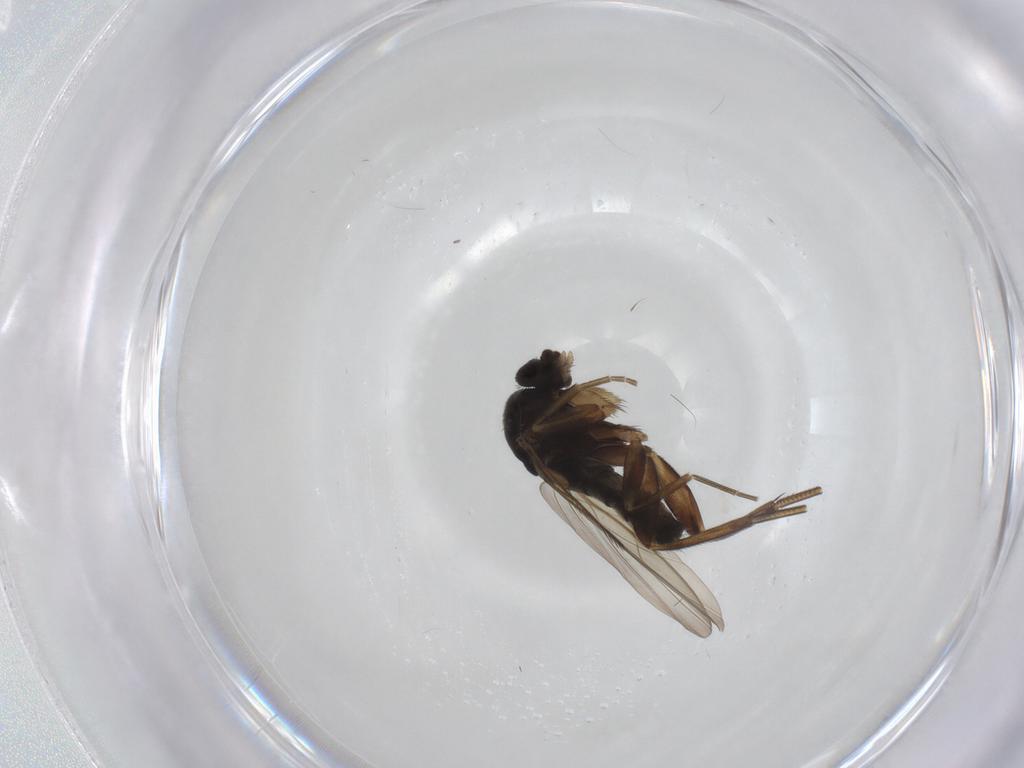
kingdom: Animalia
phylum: Arthropoda
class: Insecta
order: Diptera
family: Phoridae
